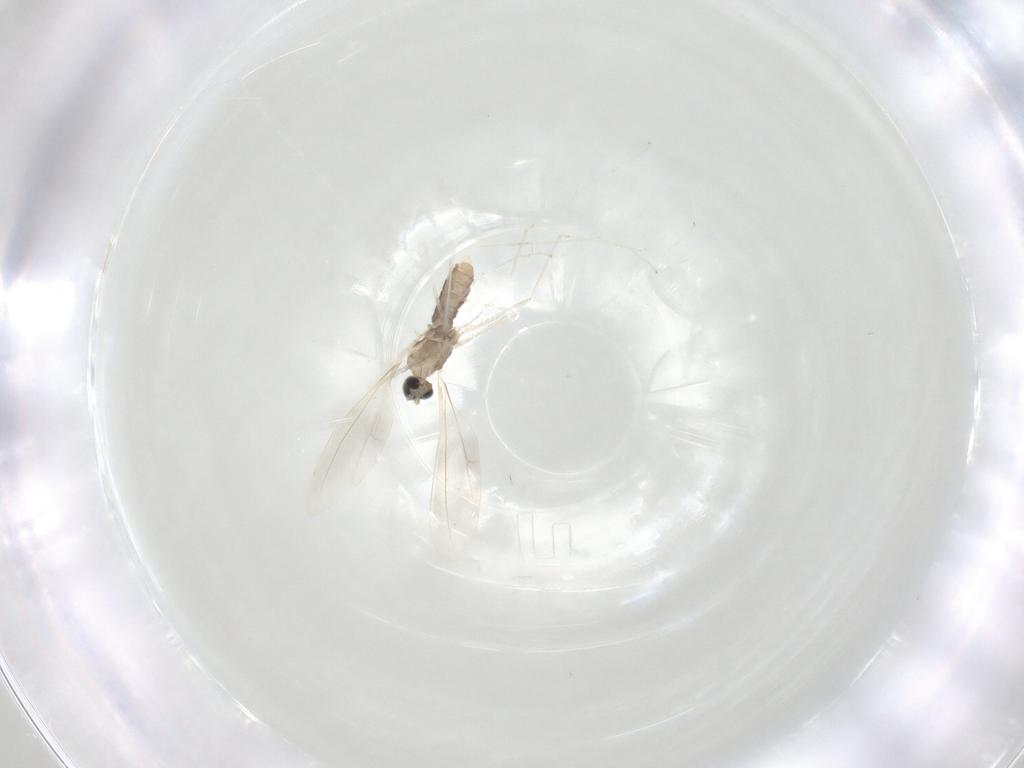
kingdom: Animalia
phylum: Arthropoda
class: Insecta
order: Diptera
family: Cecidomyiidae
